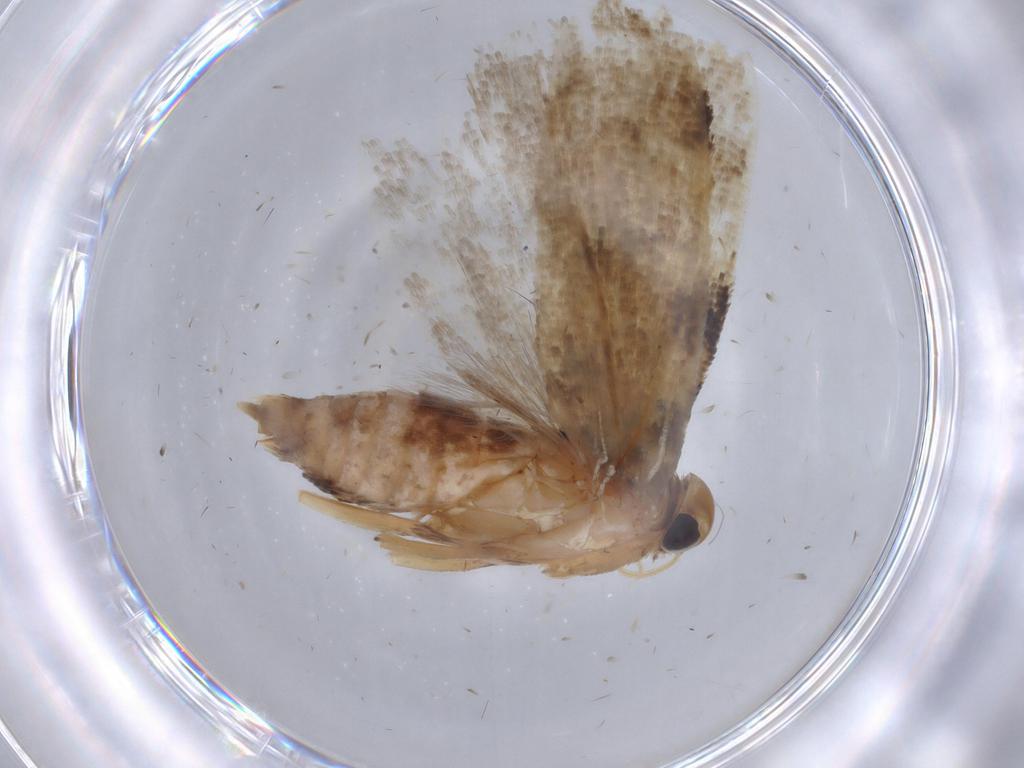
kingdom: Animalia
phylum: Arthropoda
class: Insecta
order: Lepidoptera
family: Gelechiidae
